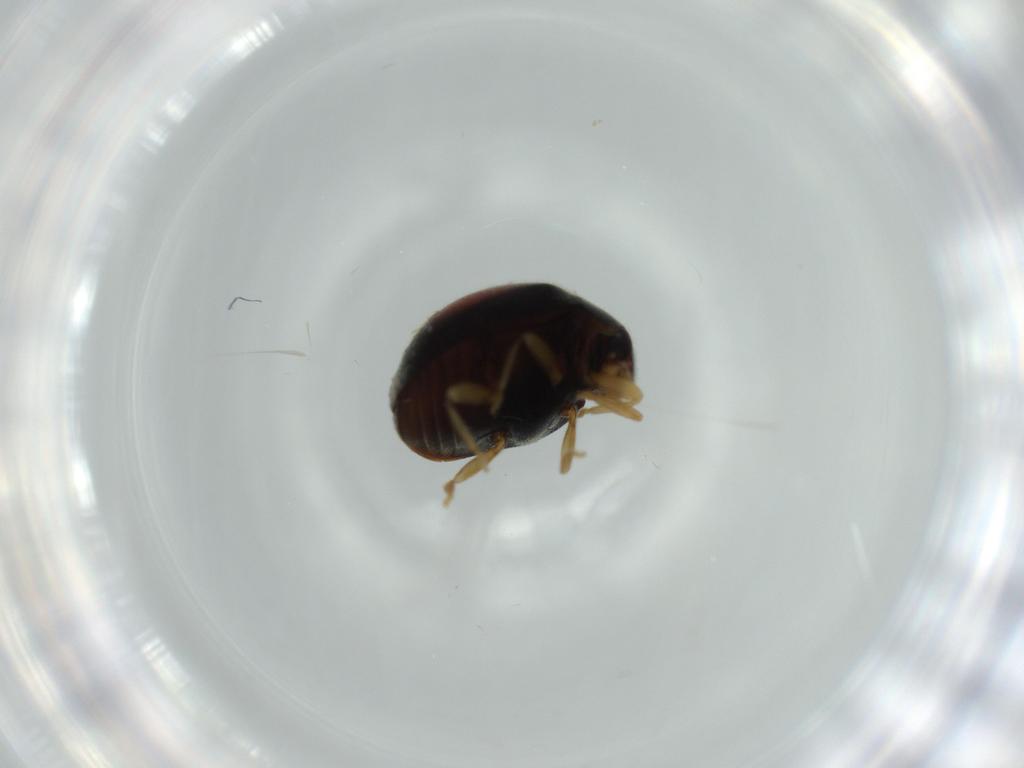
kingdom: Animalia
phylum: Arthropoda
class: Insecta
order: Coleoptera
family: Coccinellidae
